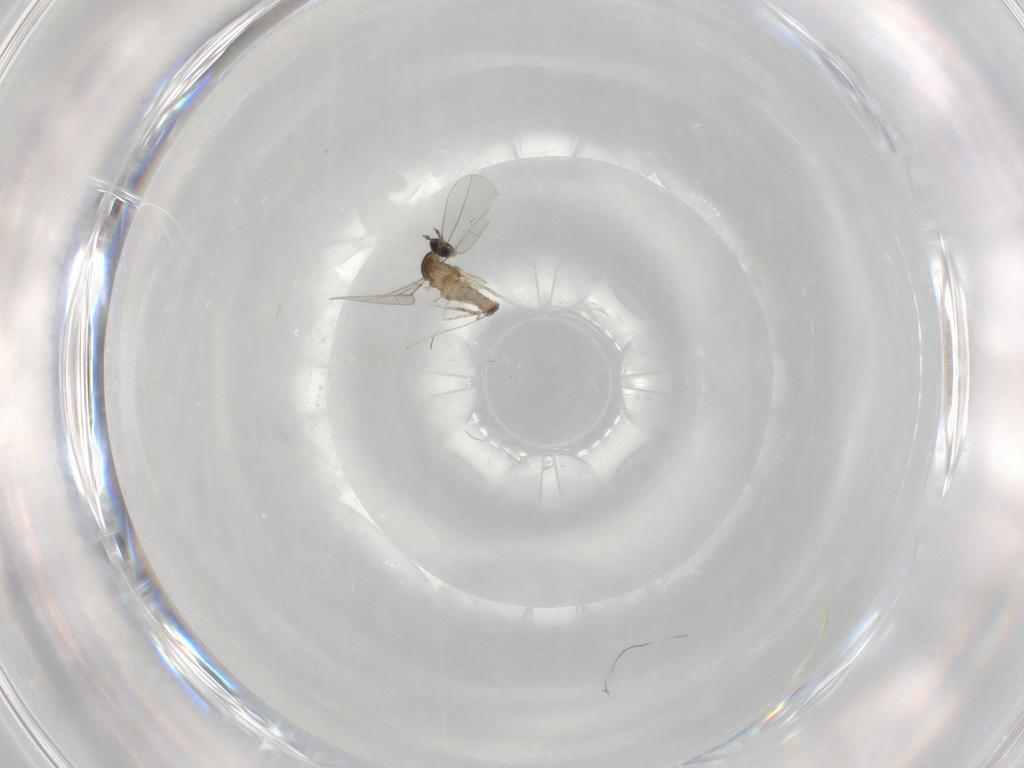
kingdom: Animalia
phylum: Arthropoda
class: Insecta
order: Diptera
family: Cecidomyiidae
